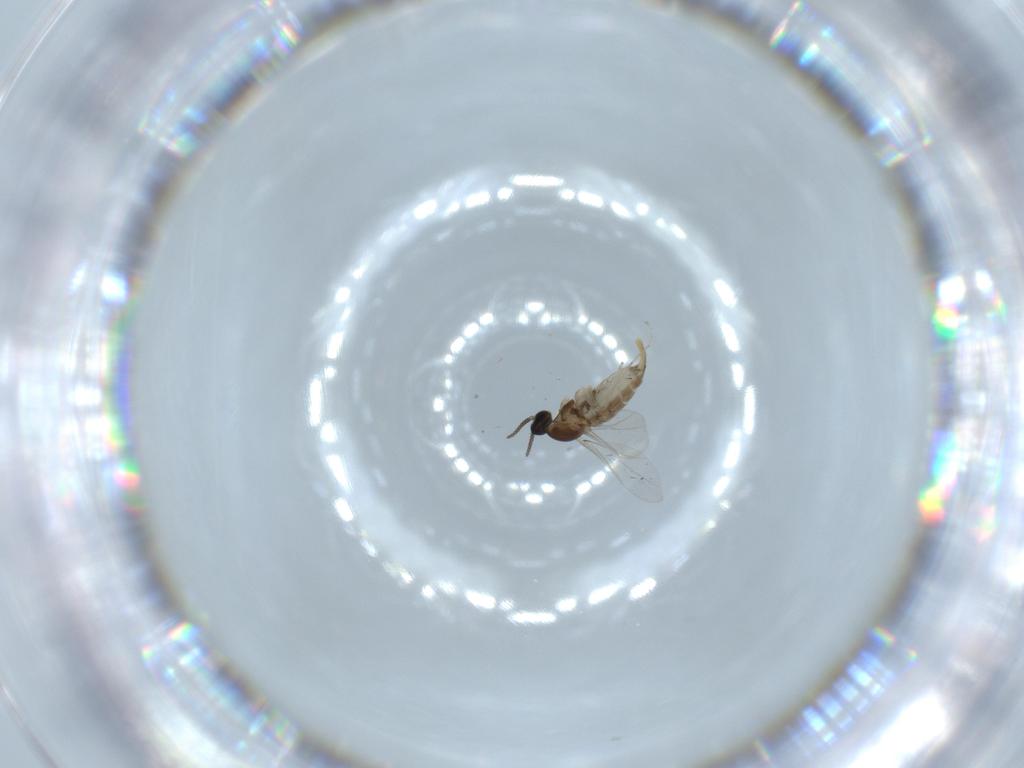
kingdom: Animalia
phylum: Arthropoda
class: Insecta
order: Diptera
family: Cecidomyiidae
